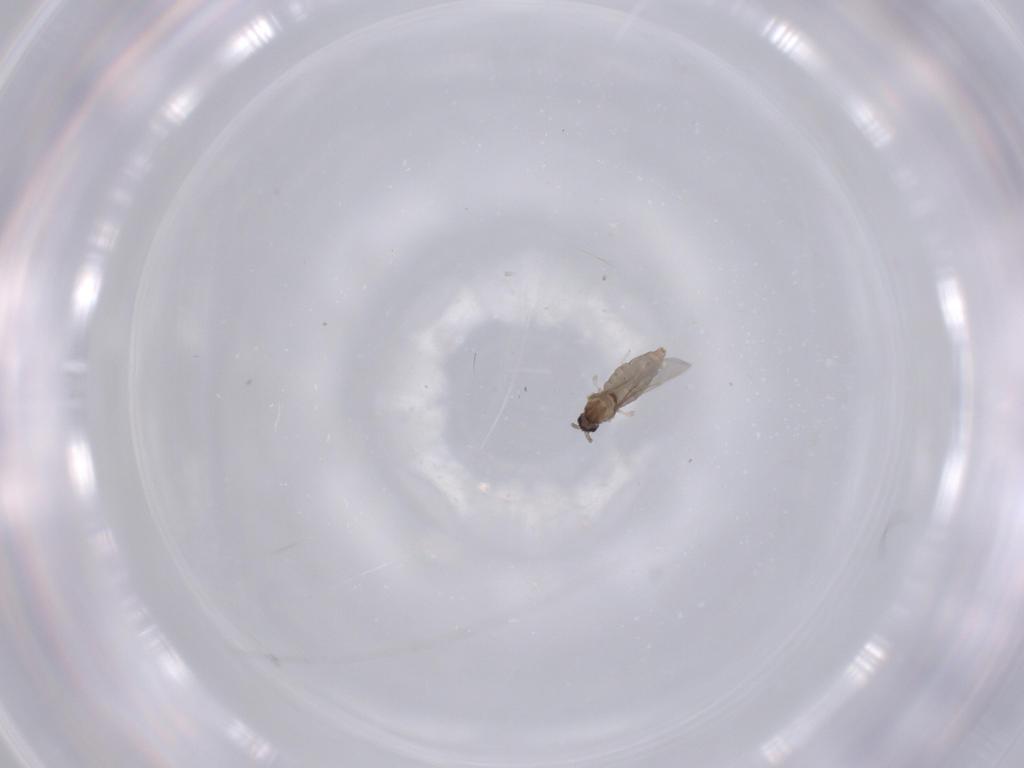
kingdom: Animalia
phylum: Arthropoda
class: Insecta
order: Diptera
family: Sciaridae
